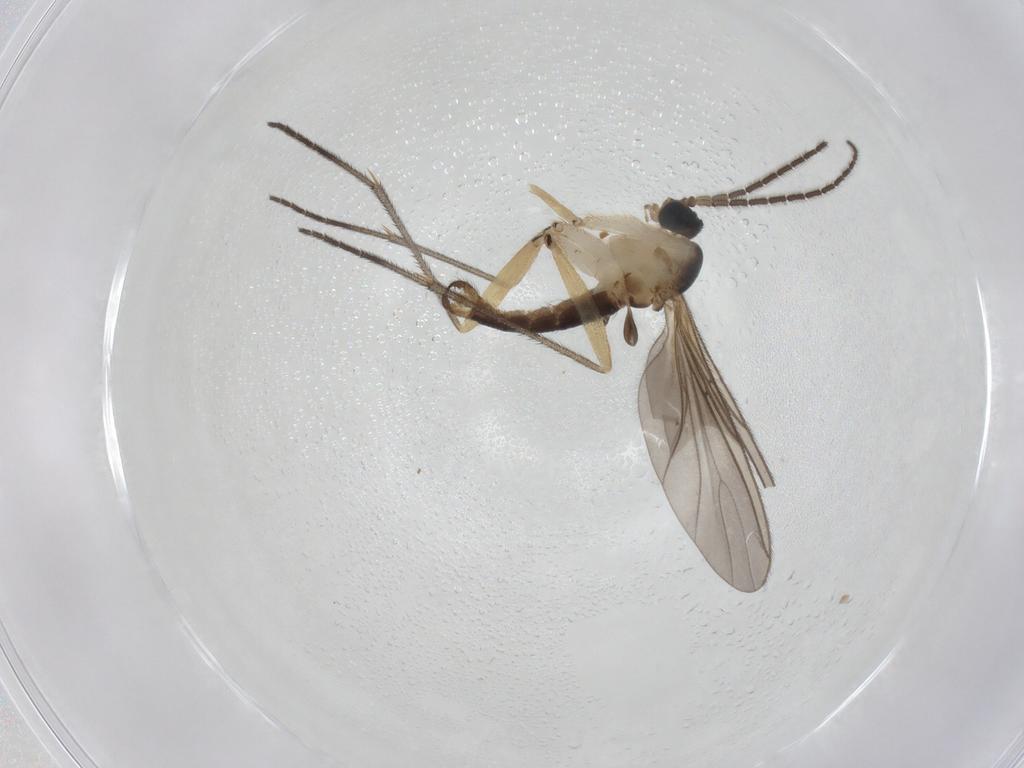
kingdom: Animalia
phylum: Arthropoda
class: Insecta
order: Diptera
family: Sciaridae
